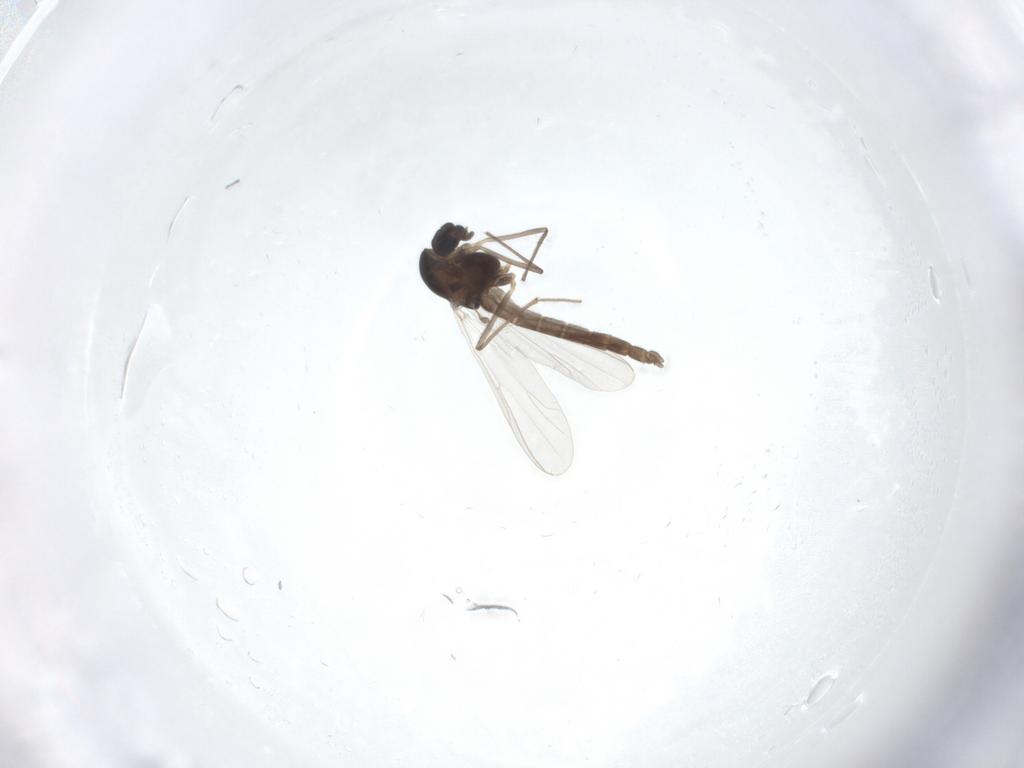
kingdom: Animalia
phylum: Arthropoda
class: Insecta
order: Diptera
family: Chironomidae
